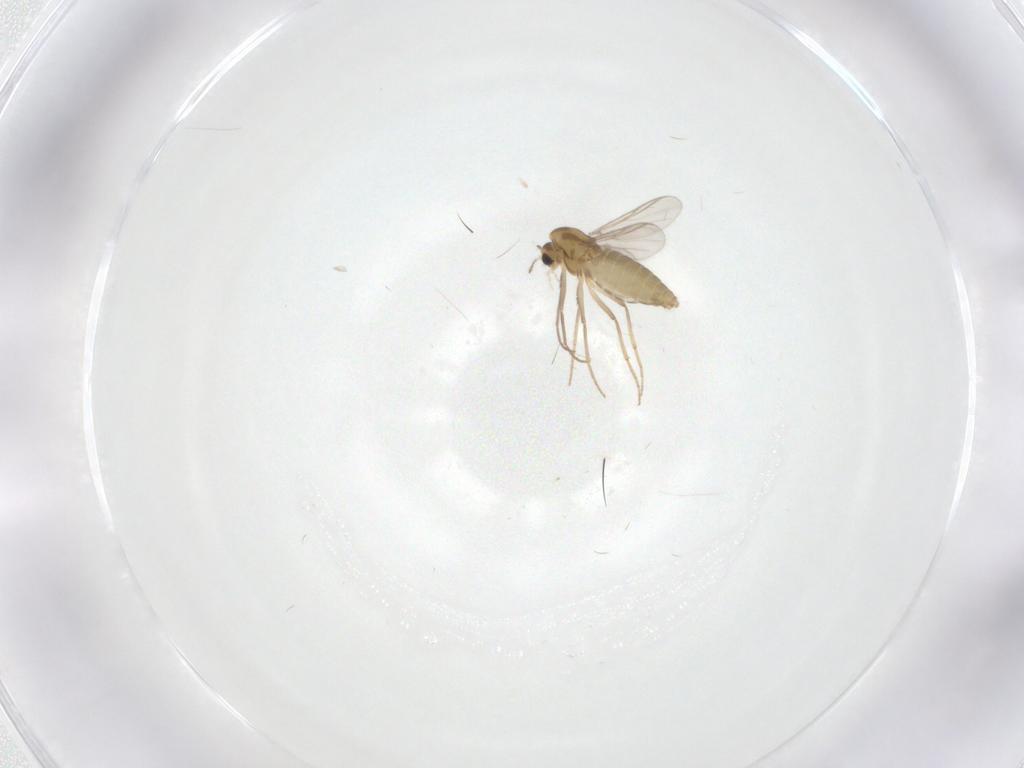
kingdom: Animalia
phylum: Arthropoda
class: Insecta
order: Diptera
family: Chironomidae
